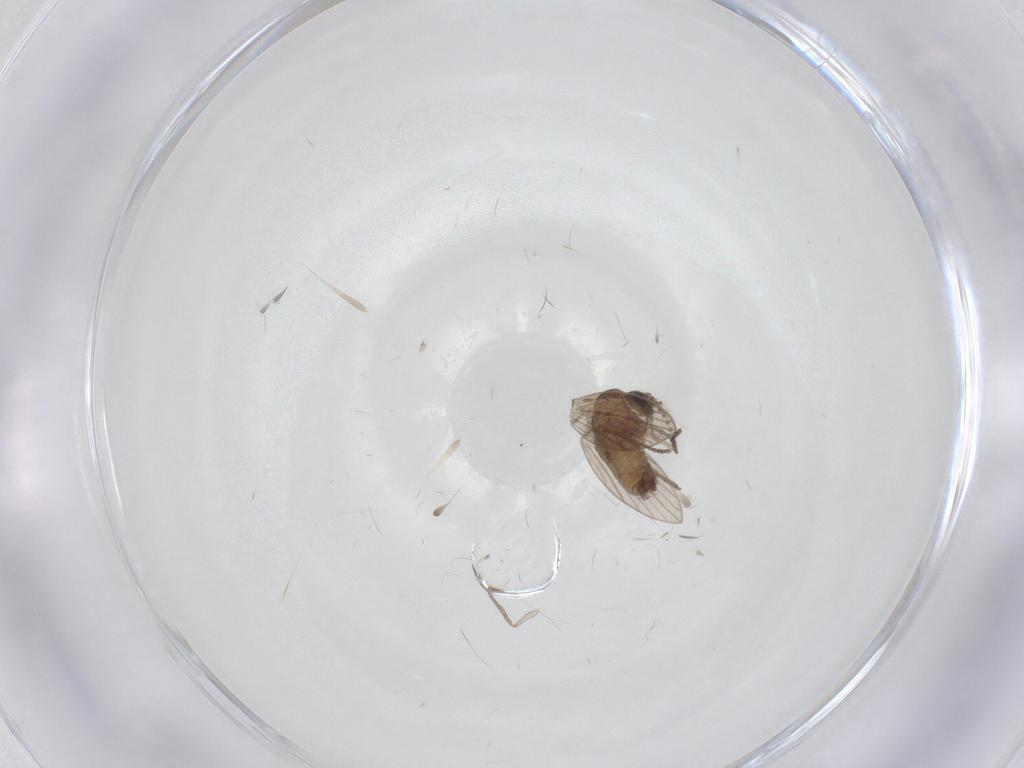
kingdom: Animalia
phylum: Arthropoda
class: Insecta
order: Diptera
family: Psychodidae
